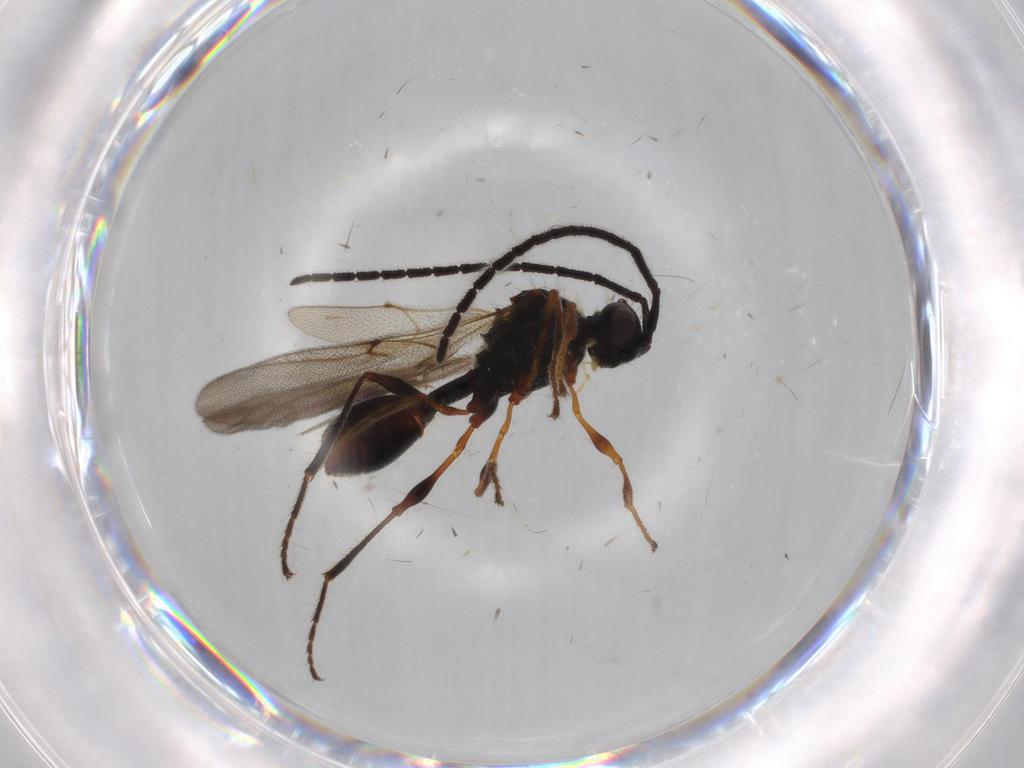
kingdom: Animalia
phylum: Arthropoda
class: Insecta
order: Hymenoptera
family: Diapriidae
